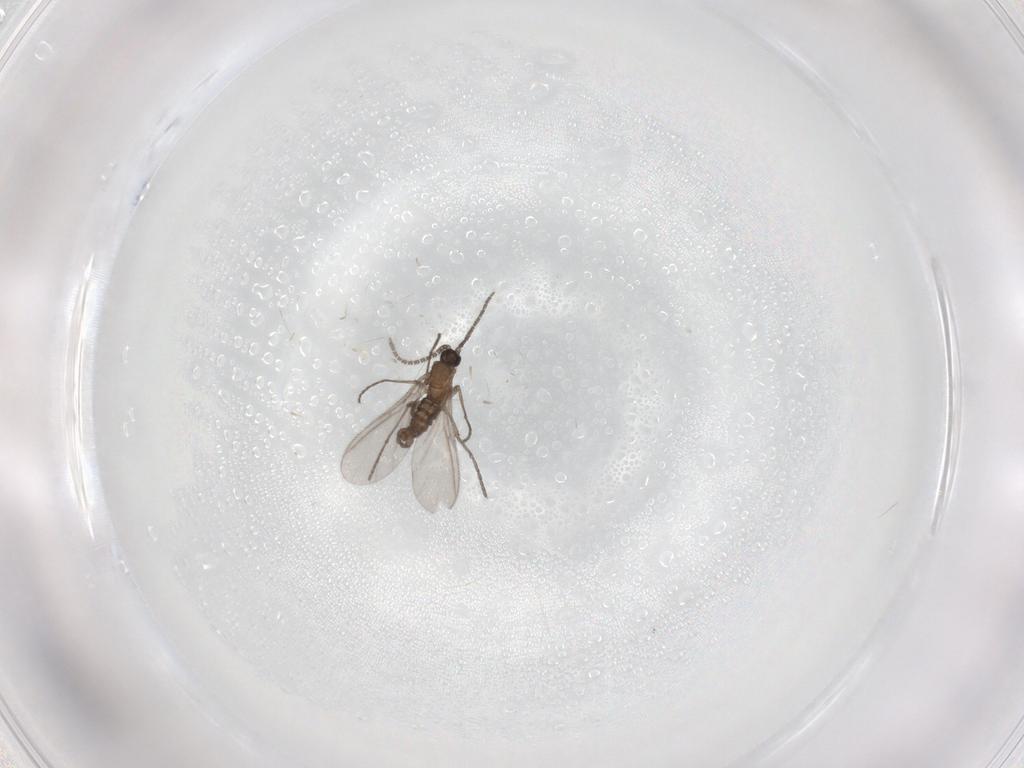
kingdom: Animalia
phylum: Arthropoda
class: Insecta
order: Diptera
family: Sciaridae
